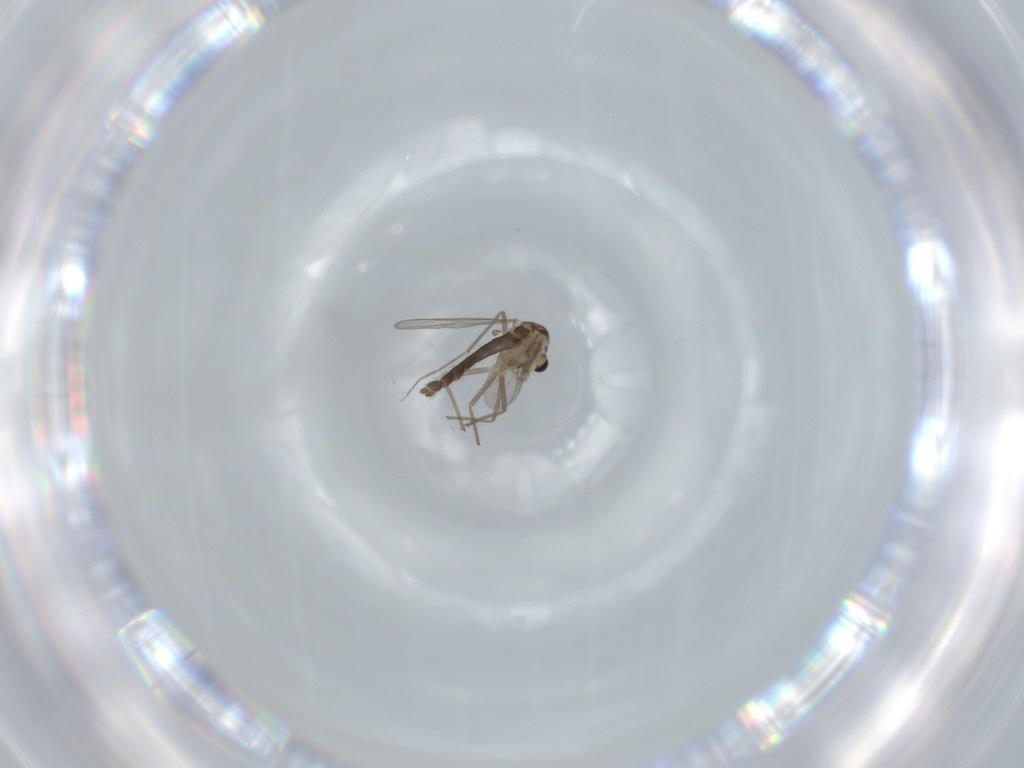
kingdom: Animalia
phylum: Arthropoda
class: Insecta
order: Diptera
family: Chironomidae
